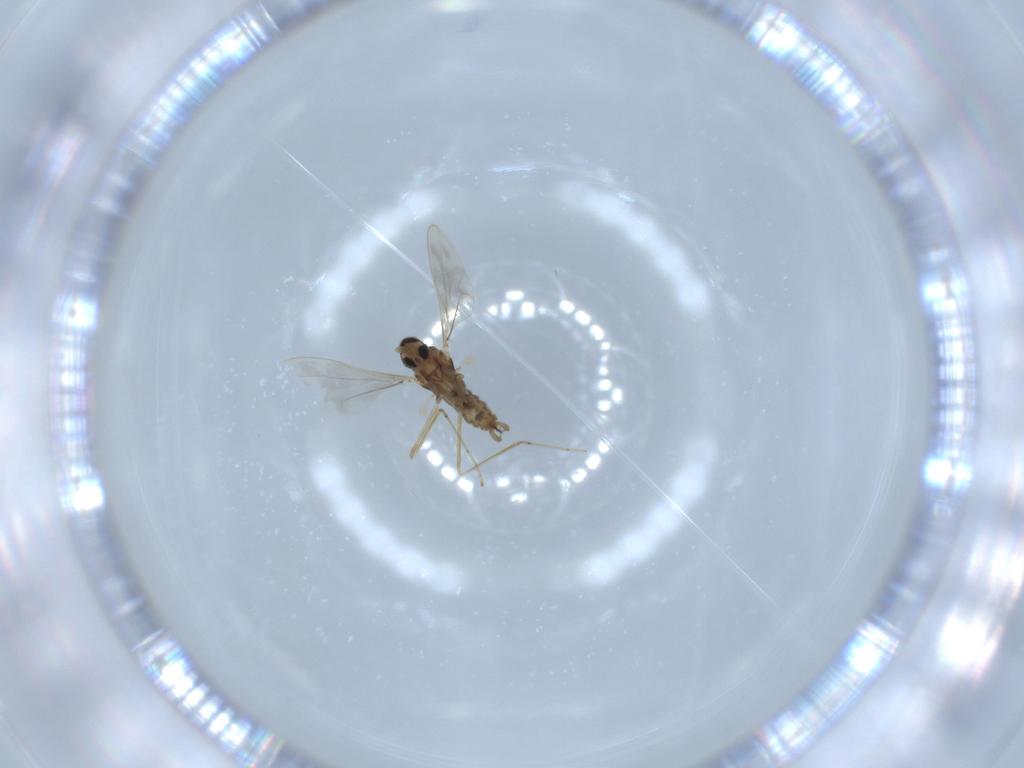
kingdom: Animalia
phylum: Arthropoda
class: Insecta
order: Diptera
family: Cecidomyiidae
